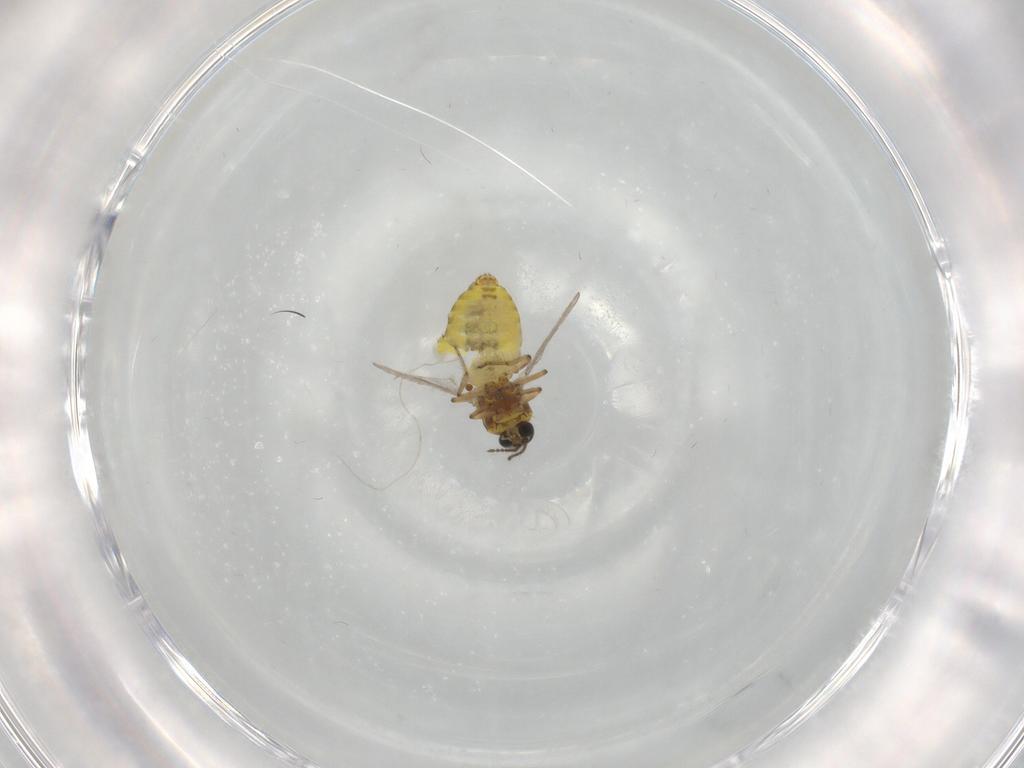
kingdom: Animalia
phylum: Arthropoda
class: Insecta
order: Diptera
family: Ceratopogonidae
